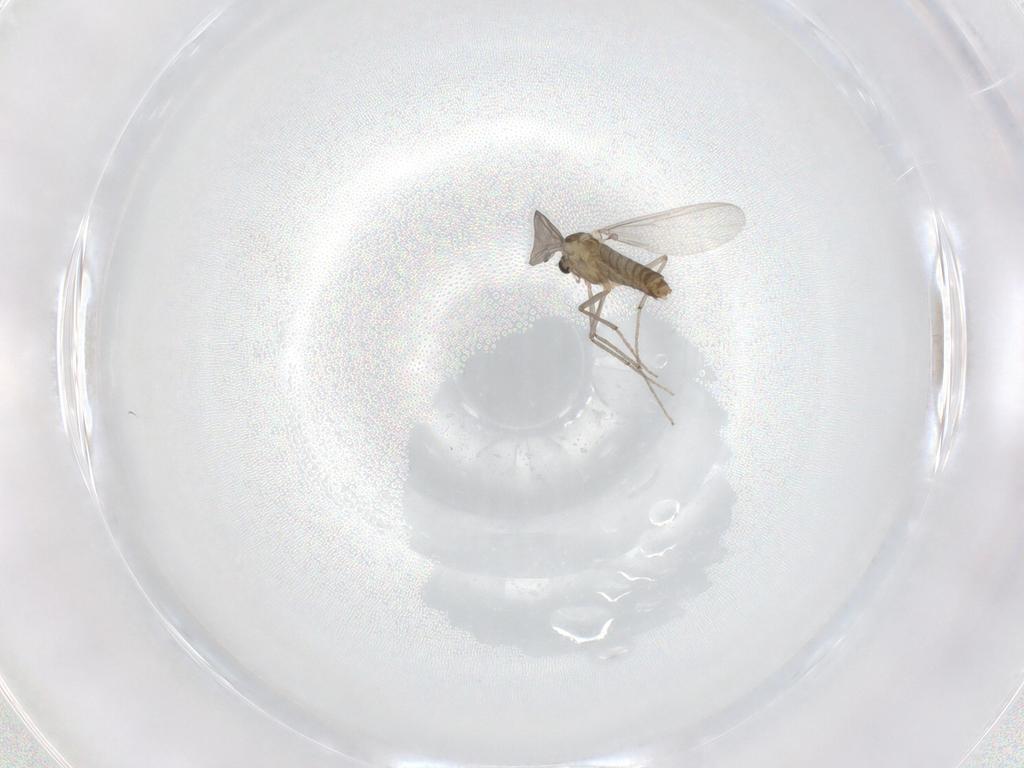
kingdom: Animalia
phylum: Arthropoda
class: Insecta
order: Diptera
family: Chironomidae
